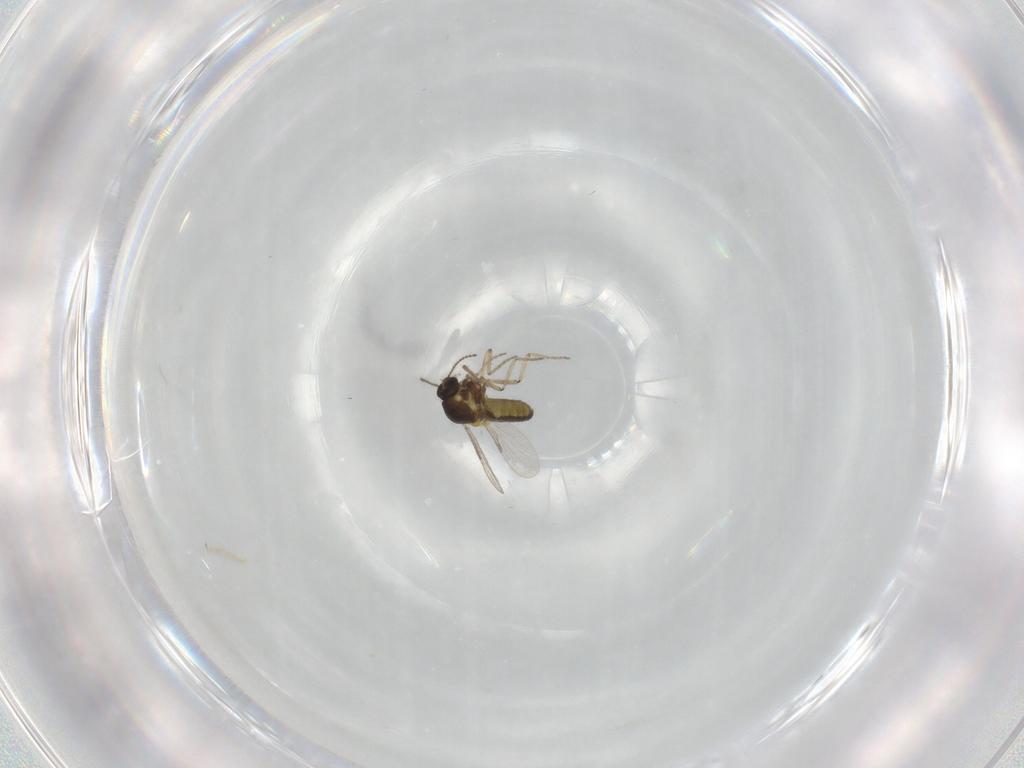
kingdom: Animalia
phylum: Arthropoda
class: Insecta
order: Diptera
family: Ceratopogonidae
